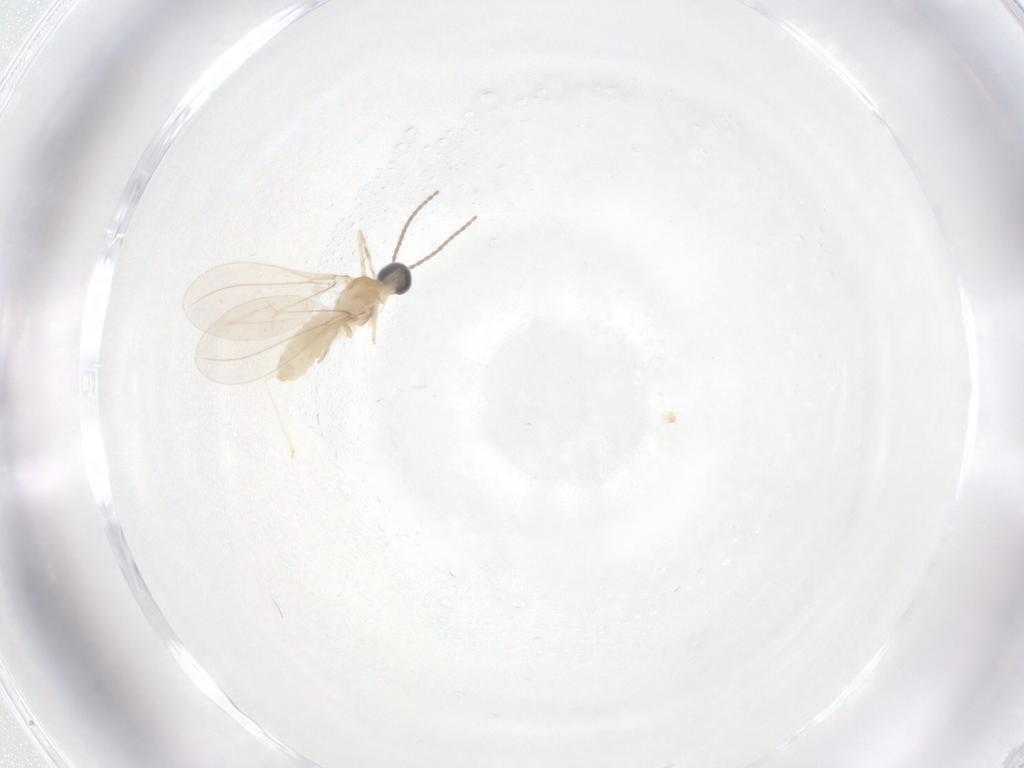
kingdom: Animalia
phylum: Arthropoda
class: Insecta
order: Diptera
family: Cecidomyiidae
